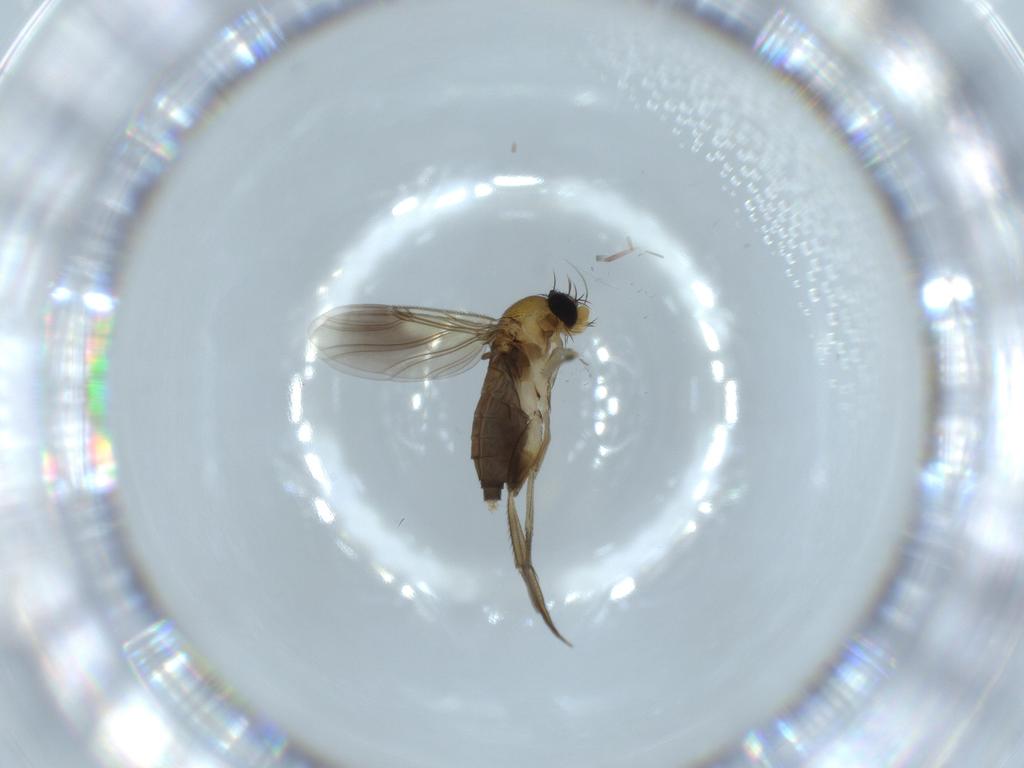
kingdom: Animalia
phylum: Arthropoda
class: Insecta
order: Diptera
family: Phoridae
